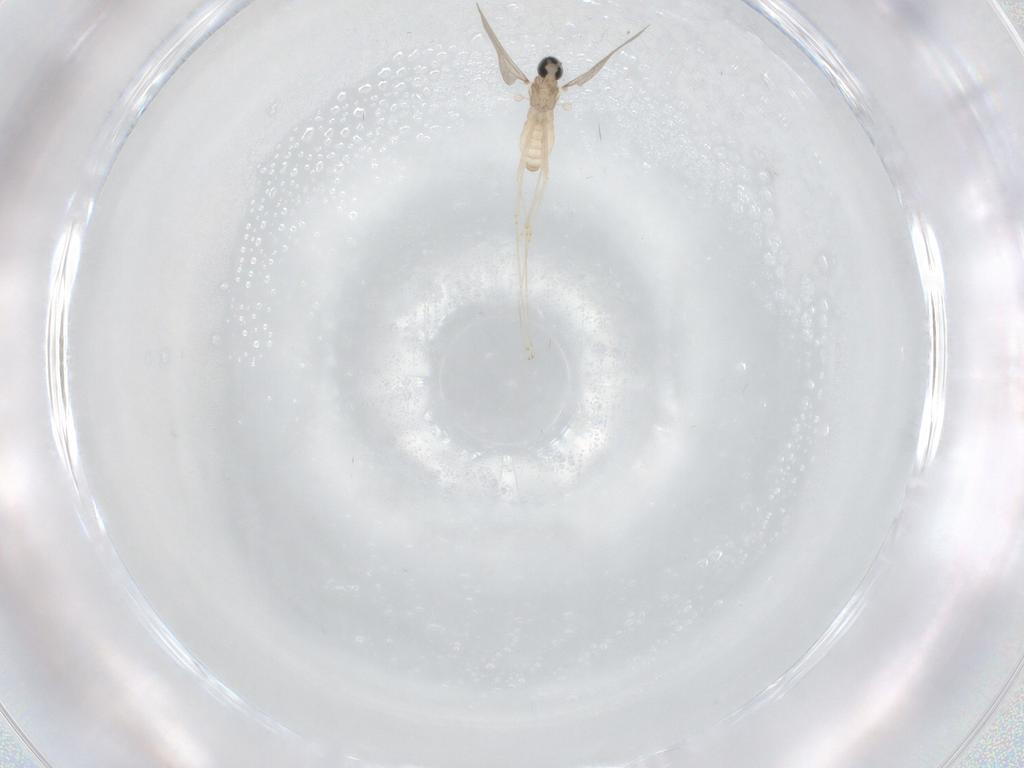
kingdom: Animalia
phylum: Arthropoda
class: Insecta
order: Diptera
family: Cecidomyiidae
